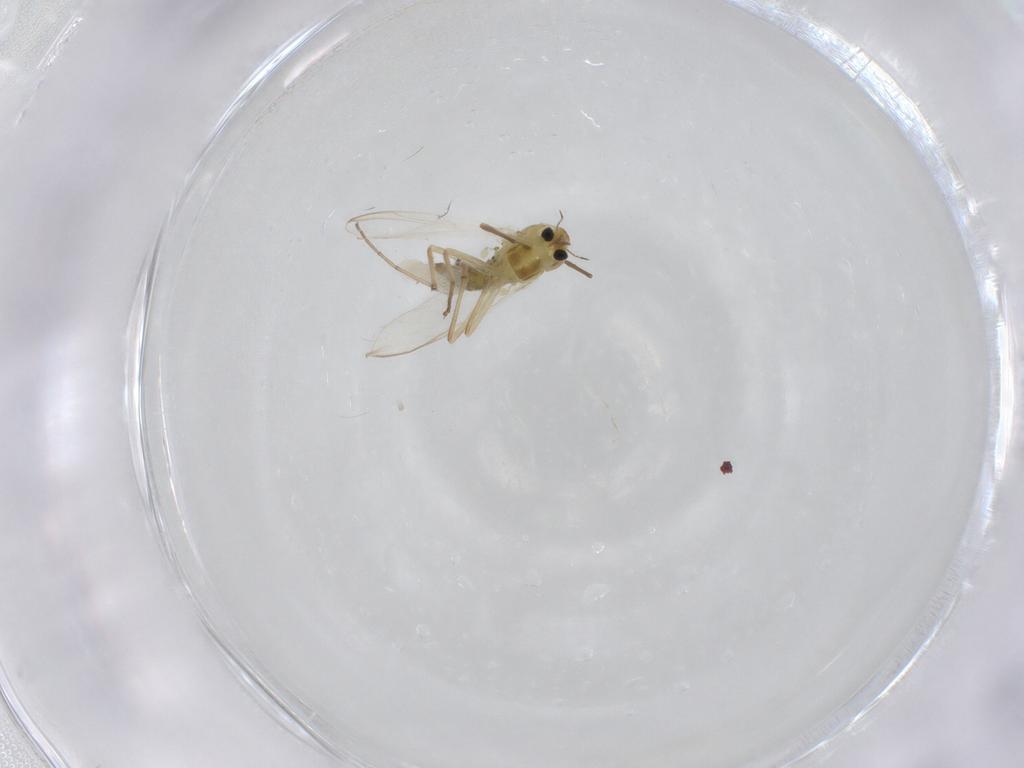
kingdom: Animalia
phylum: Arthropoda
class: Insecta
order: Diptera
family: Chironomidae
